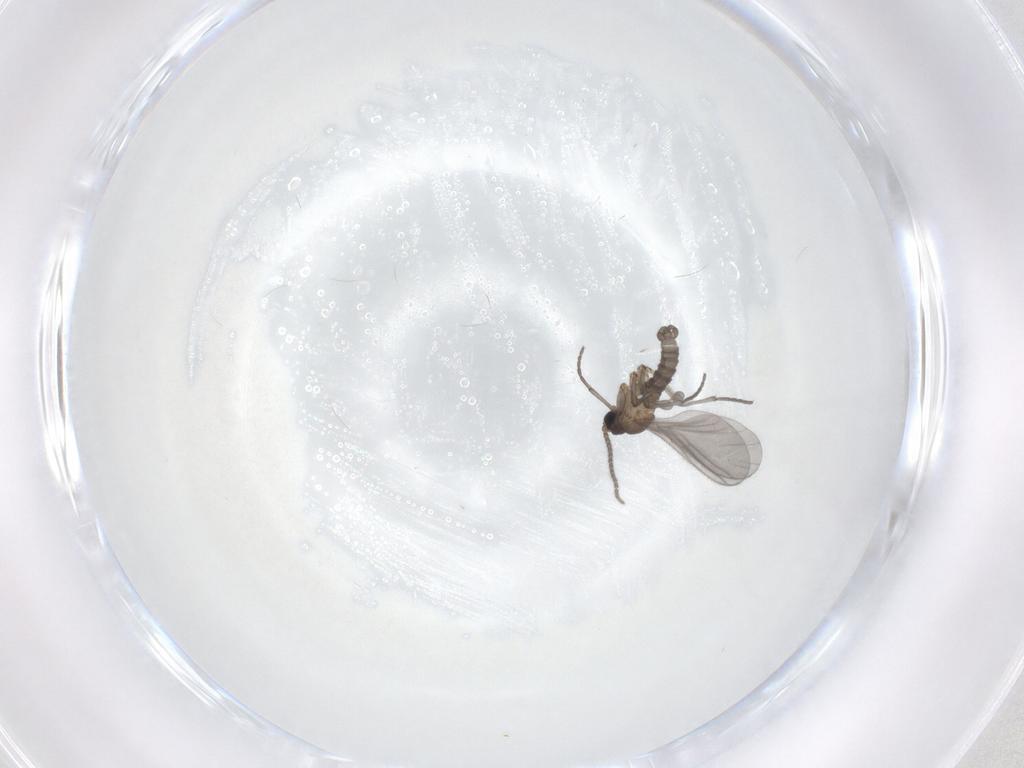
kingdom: Animalia
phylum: Arthropoda
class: Insecta
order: Diptera
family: Sciaridae
